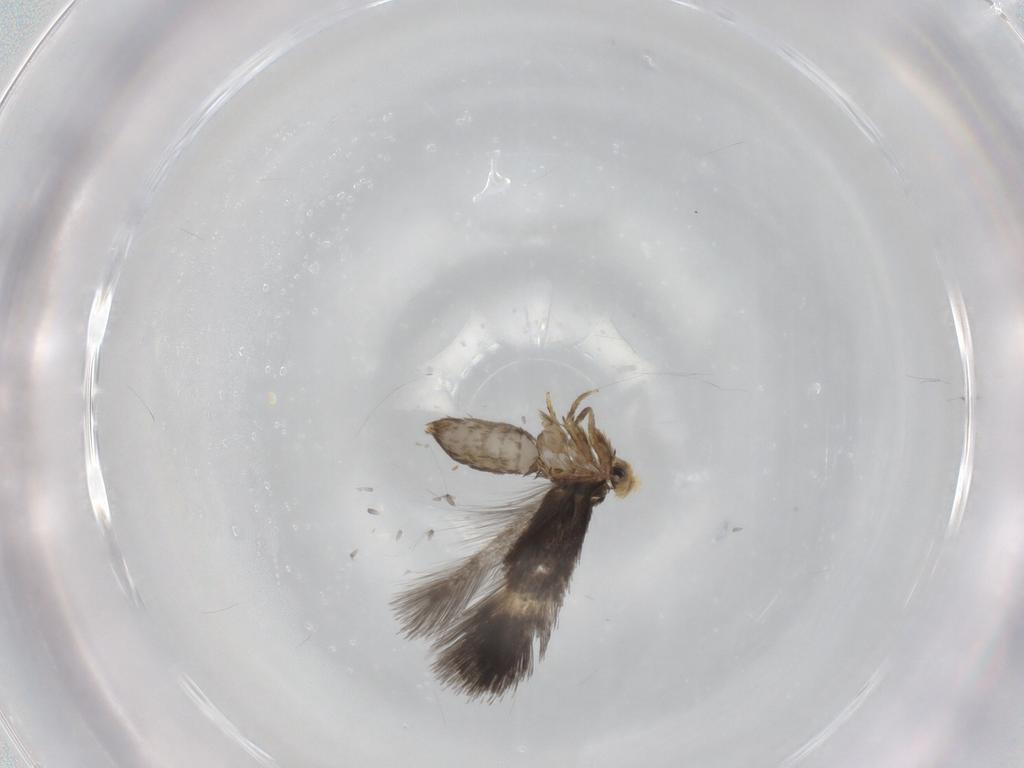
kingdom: Animalia
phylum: Arthropoda
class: Insecta
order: Lepidoptera
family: Nepticulidae
